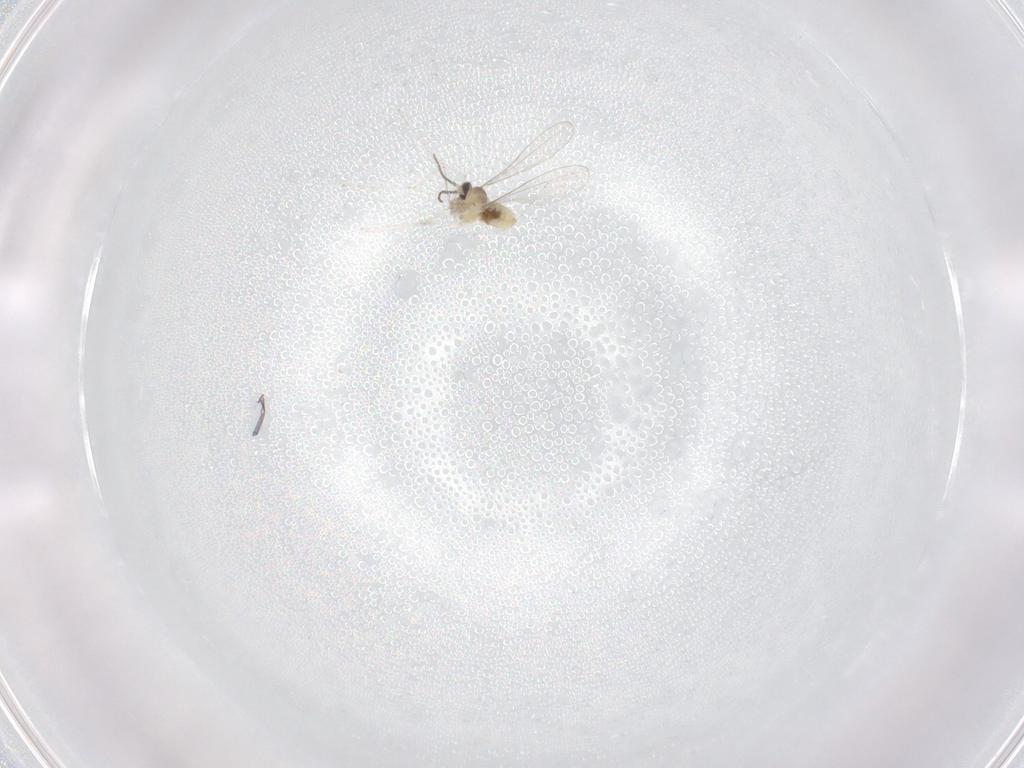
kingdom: Animalia
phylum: Arthropoda
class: Insecta
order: Diptera
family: Cecidomyiidae
